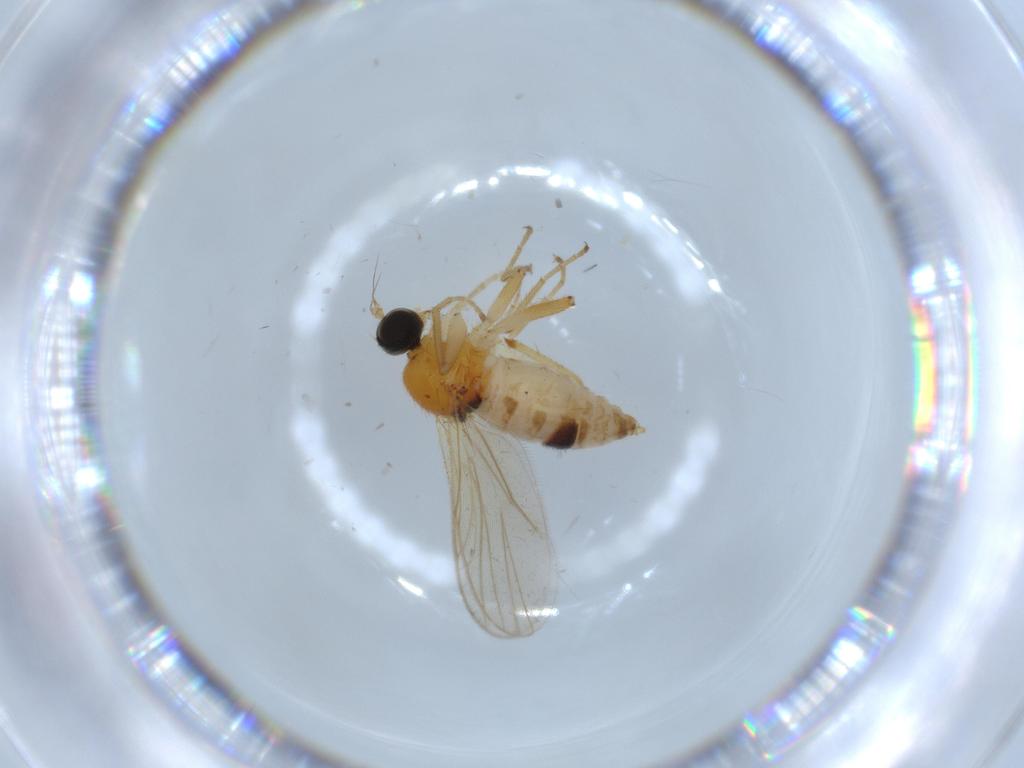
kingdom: Animalia
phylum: Arthropoda
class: Insecta
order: Diptera
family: Hybotidae
